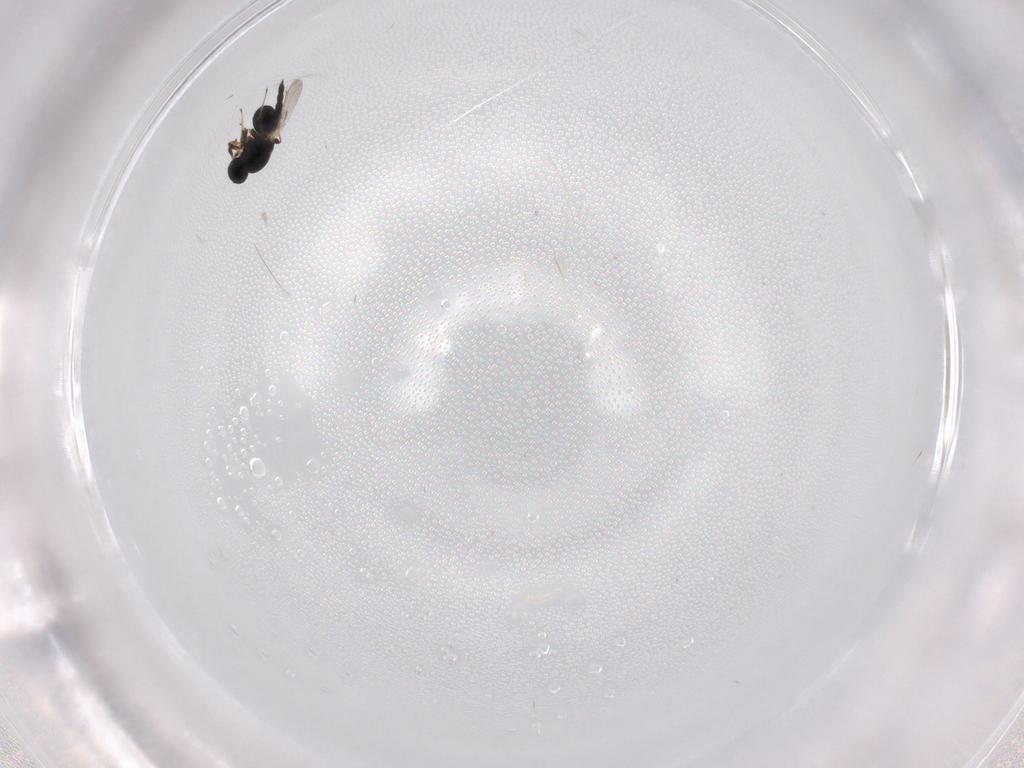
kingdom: Animalia
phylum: Arthropoda
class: Insecta
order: Hymenoptera
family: Ichneumonidae
